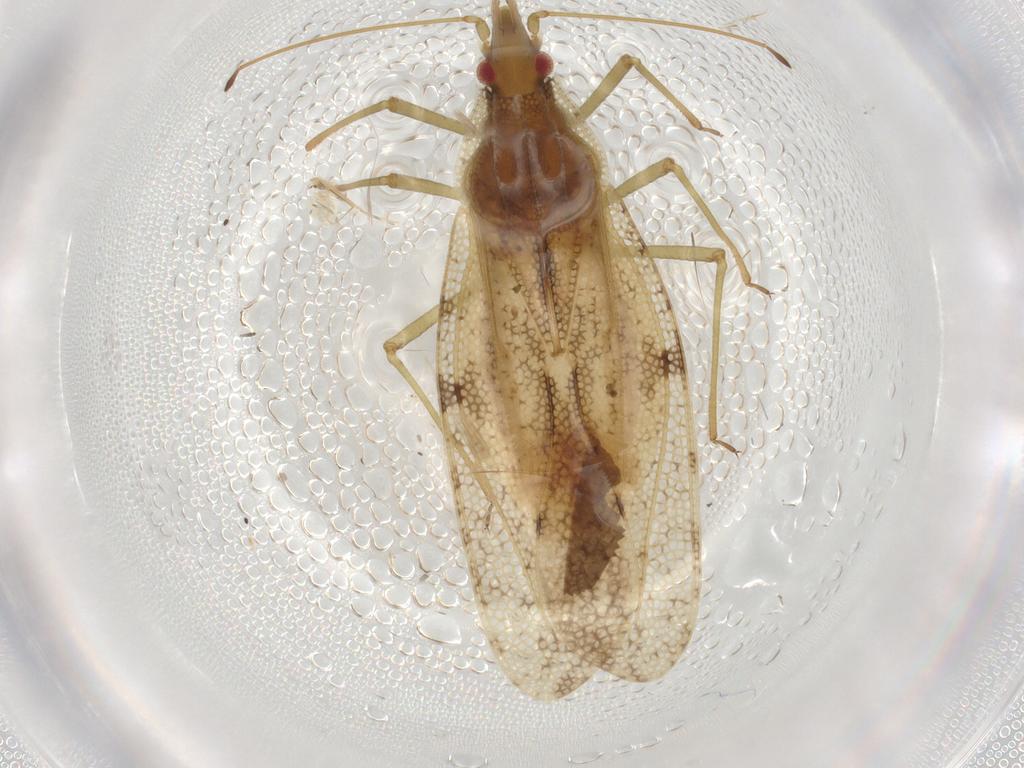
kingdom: Animalia
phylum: Arthropoda
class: Insecta
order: Hemiptera
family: Tingidae
